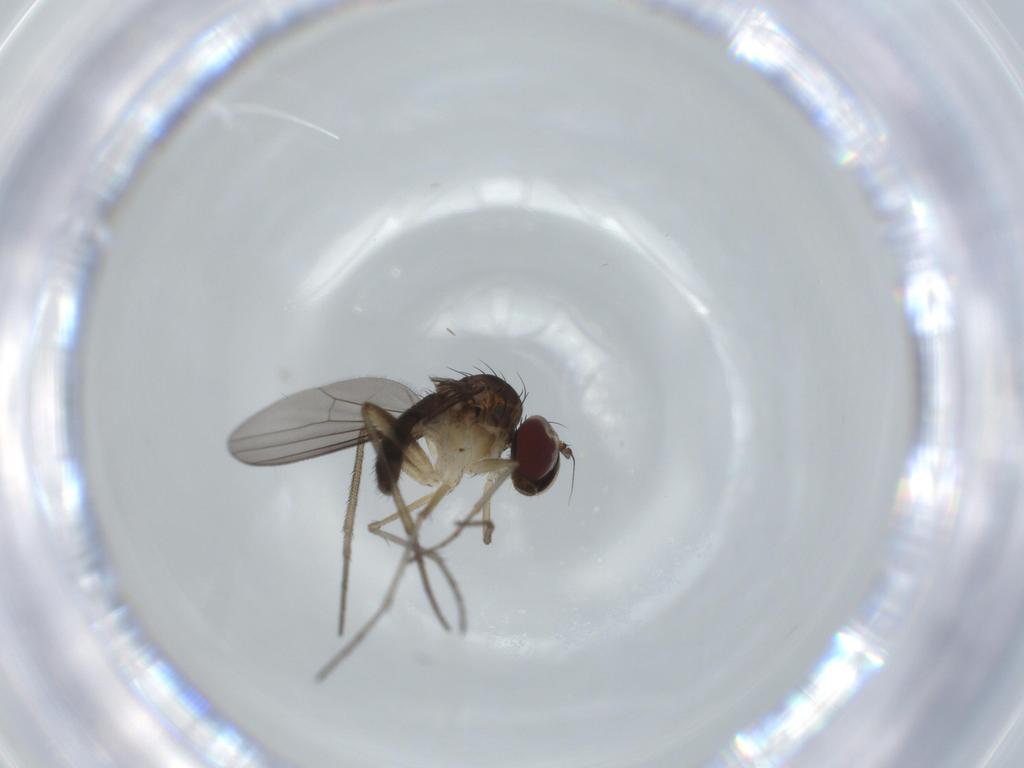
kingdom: Animalia
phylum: Arthropoda
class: Insecta
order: Diptera
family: Dolichopodidae
